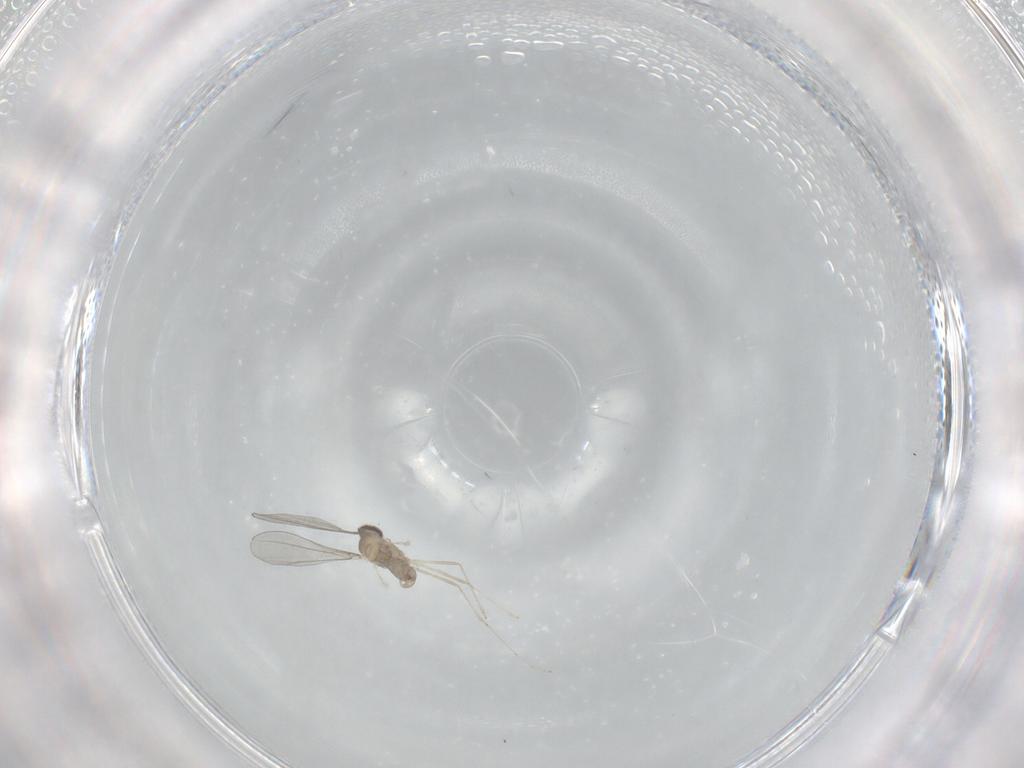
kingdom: Animalia
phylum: Arthropoda
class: Insecta
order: Diptera
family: Cecidomyiidae
